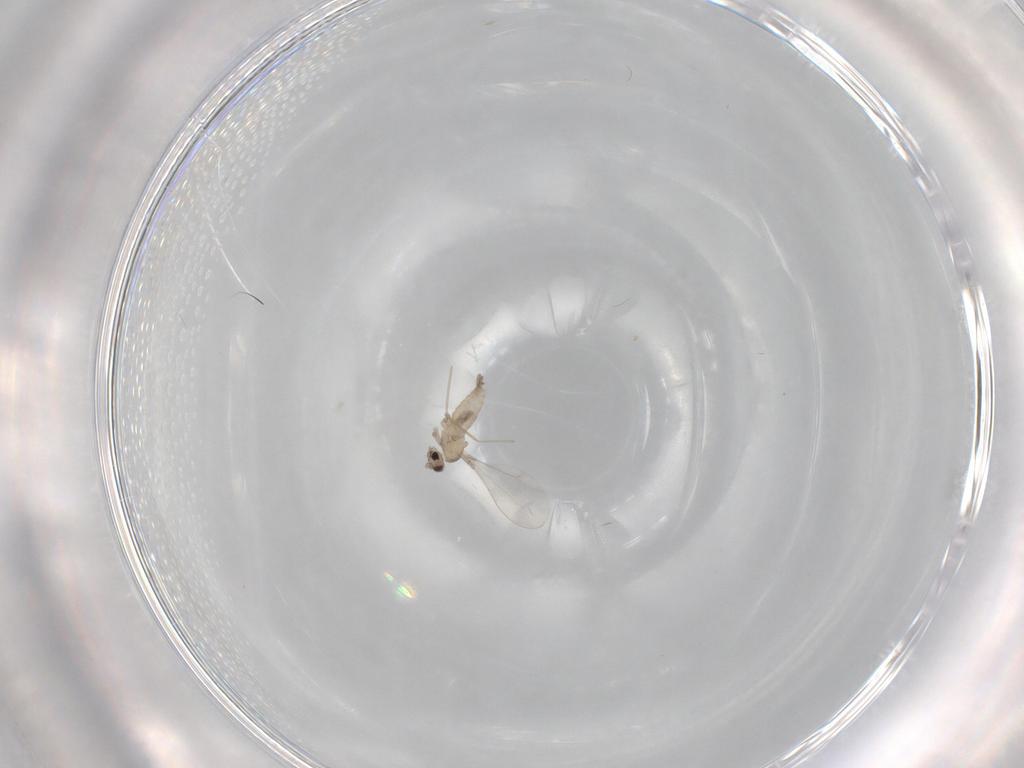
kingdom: Animalia
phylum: Arthropoda
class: Insecta
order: Diptera
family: Cecidomyiidae
